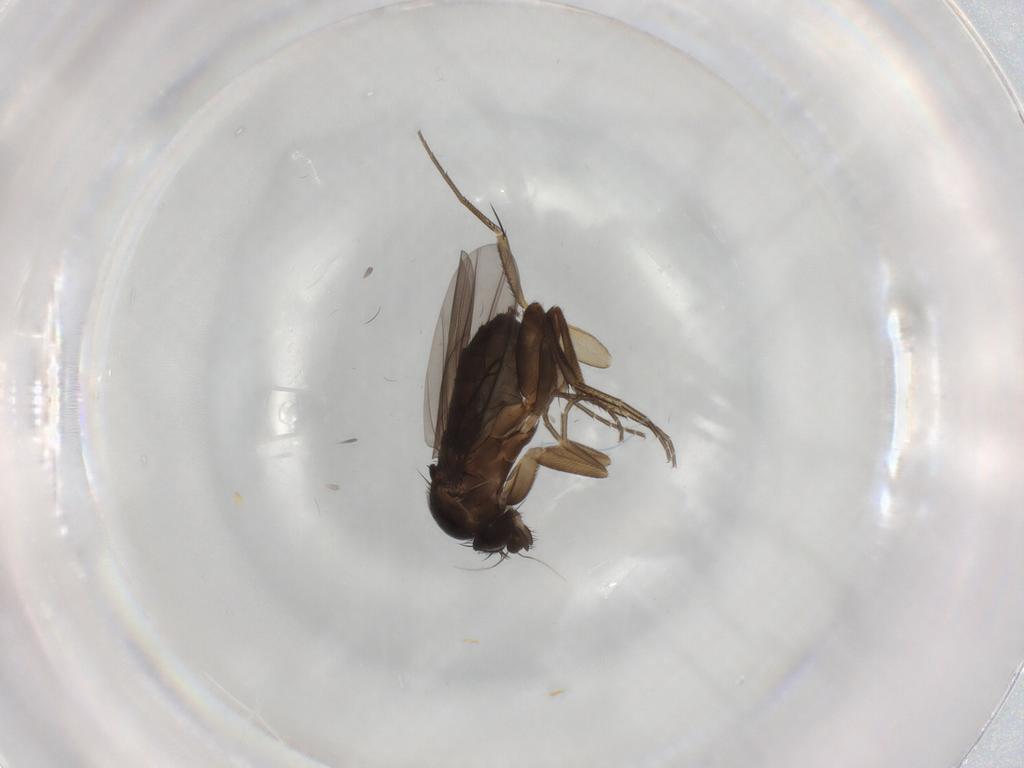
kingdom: Animalia
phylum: Arthropoda
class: Insecta
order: Diptera
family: Phoridae
